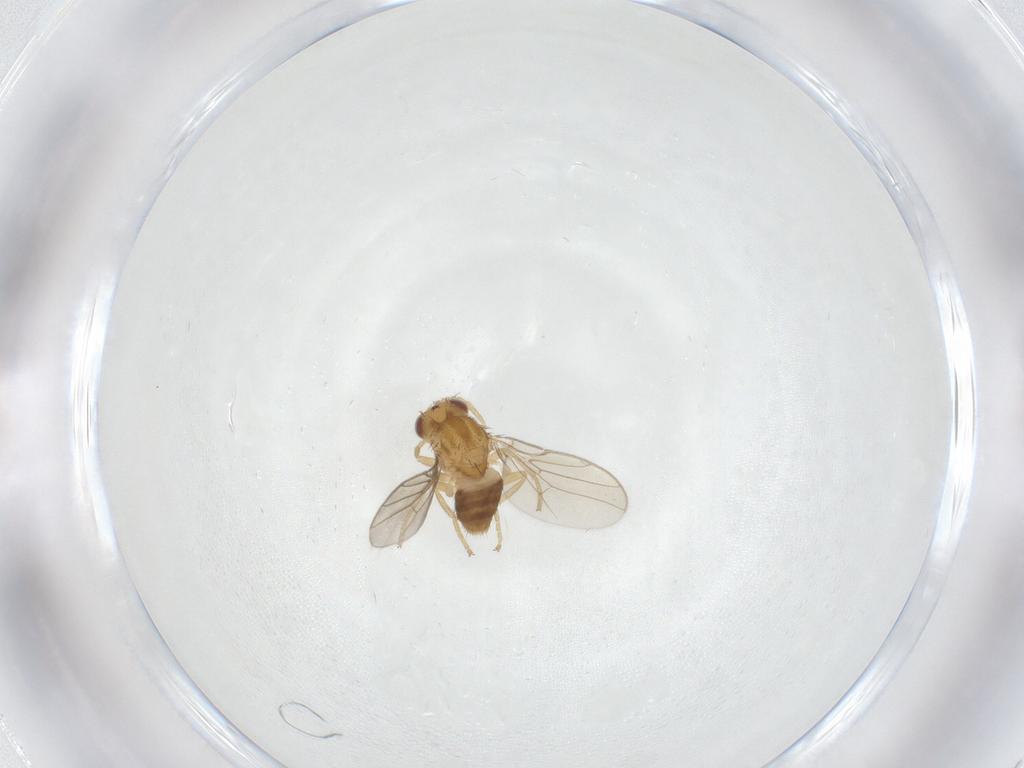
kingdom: Animalia
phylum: Arthropoda
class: Insecta
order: Diptera
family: Chloropidae
